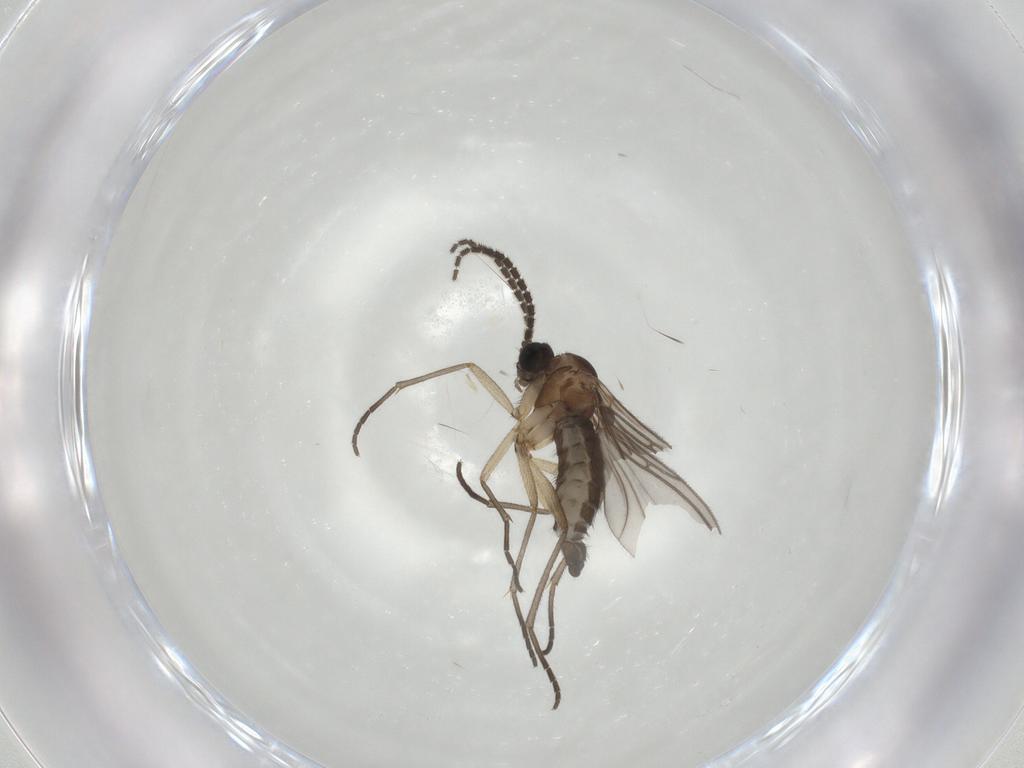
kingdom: Animalia
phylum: Arthropoda
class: Insecta
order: Diptera
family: Sciaridae
